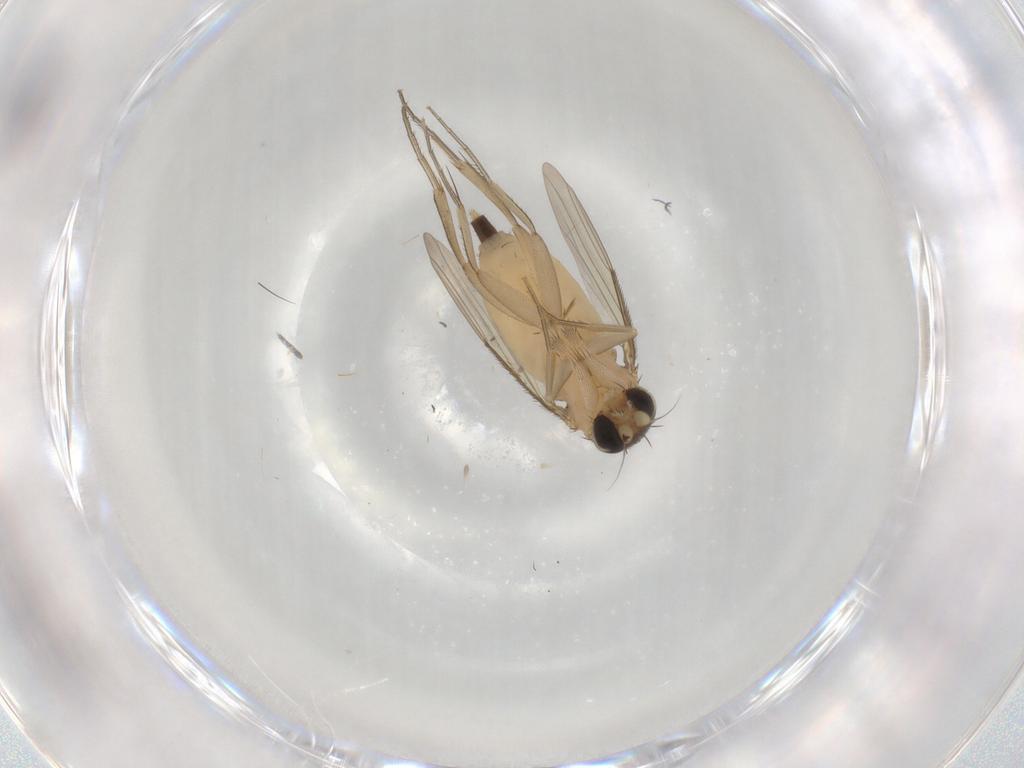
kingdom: Animalia
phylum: Arthropoda
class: Insecta
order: Diptera
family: Phoridae
